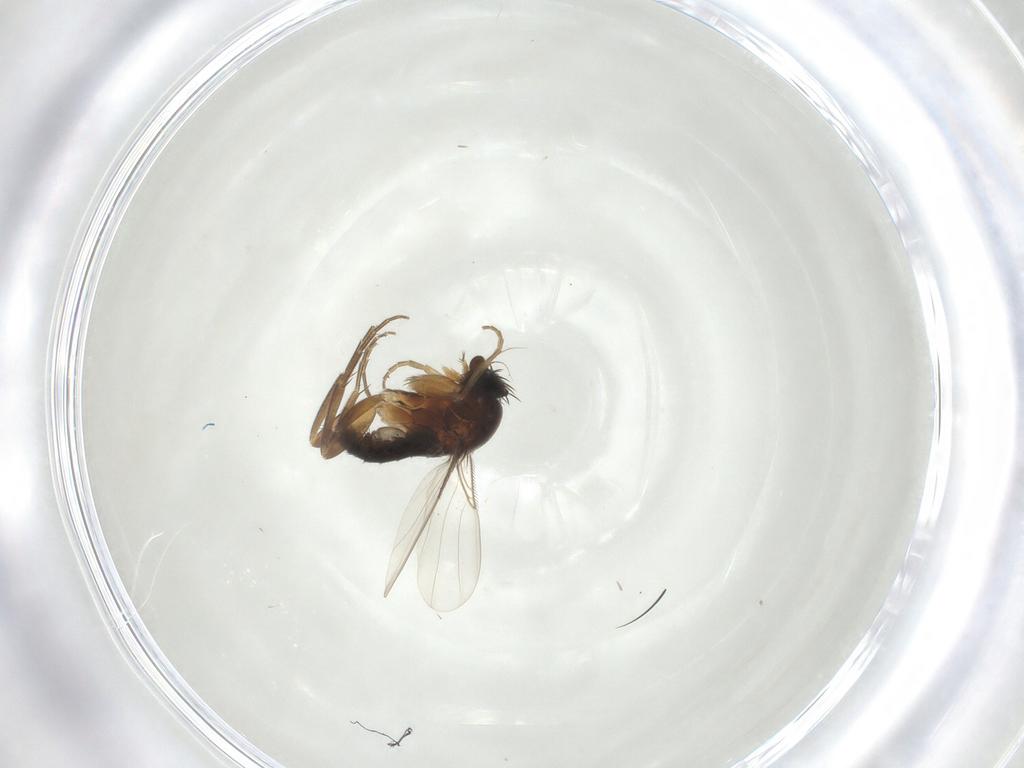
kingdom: Animalia
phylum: Arthropoda
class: Insecta
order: Diptera
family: Phoridae
